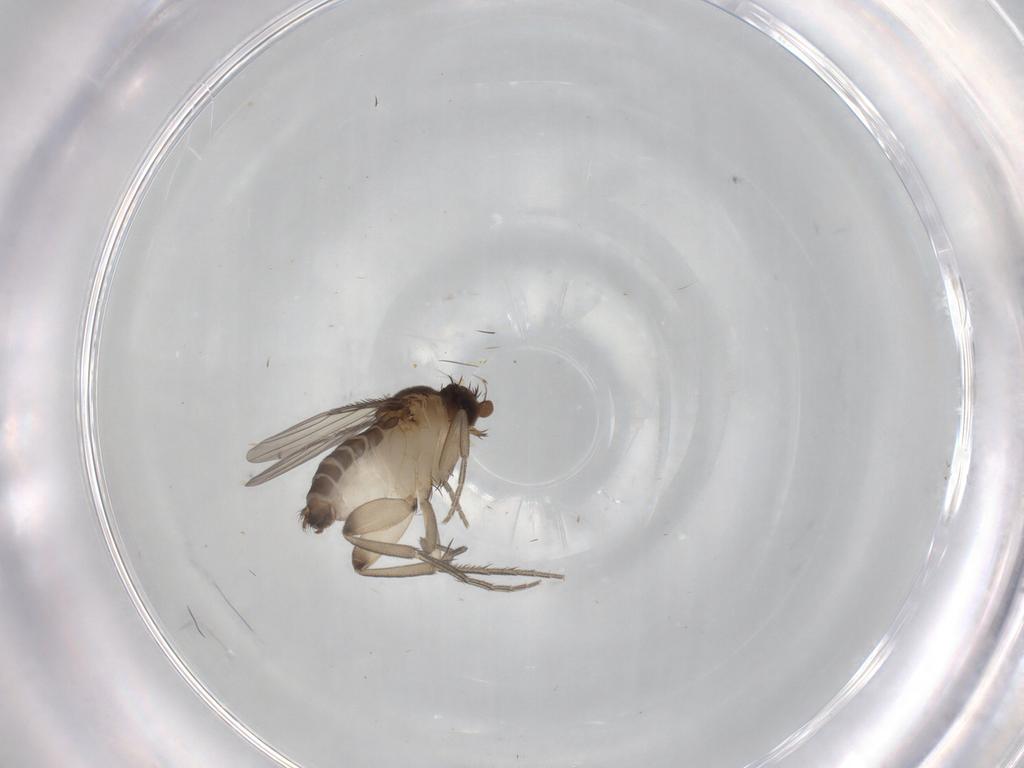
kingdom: Animalia
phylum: Arthropoda
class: Insecta
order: Diptera
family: Phoridae
